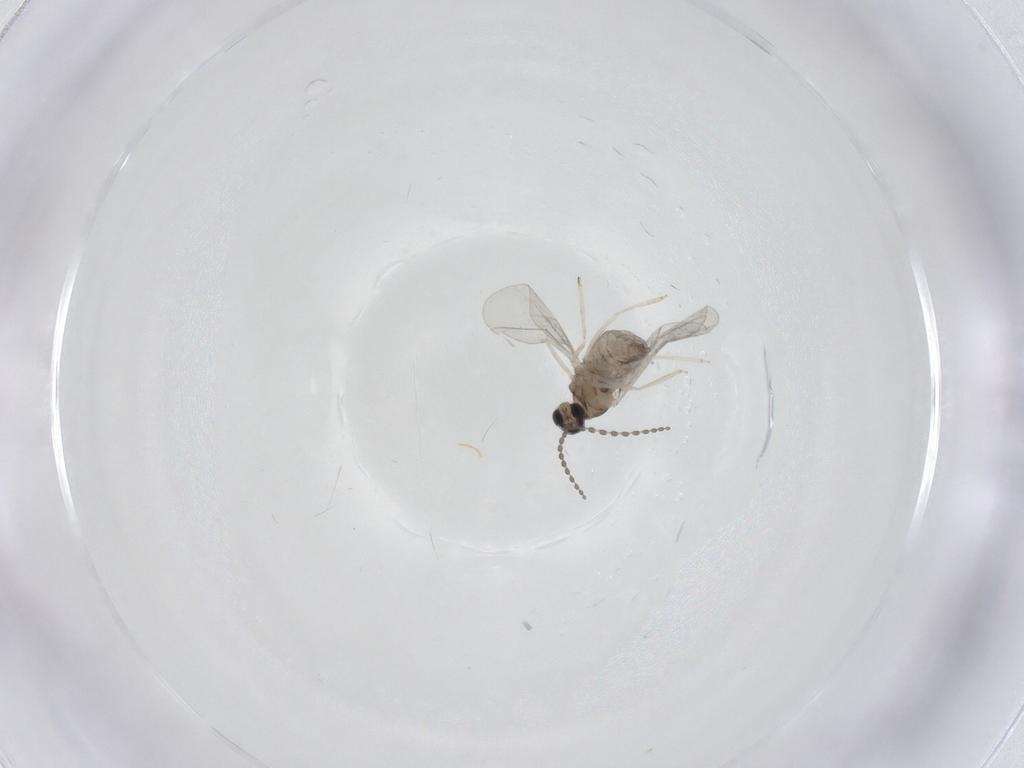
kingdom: Animalia
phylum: Arthropoda
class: Insecta
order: Diptera
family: Cecidomyiidae
